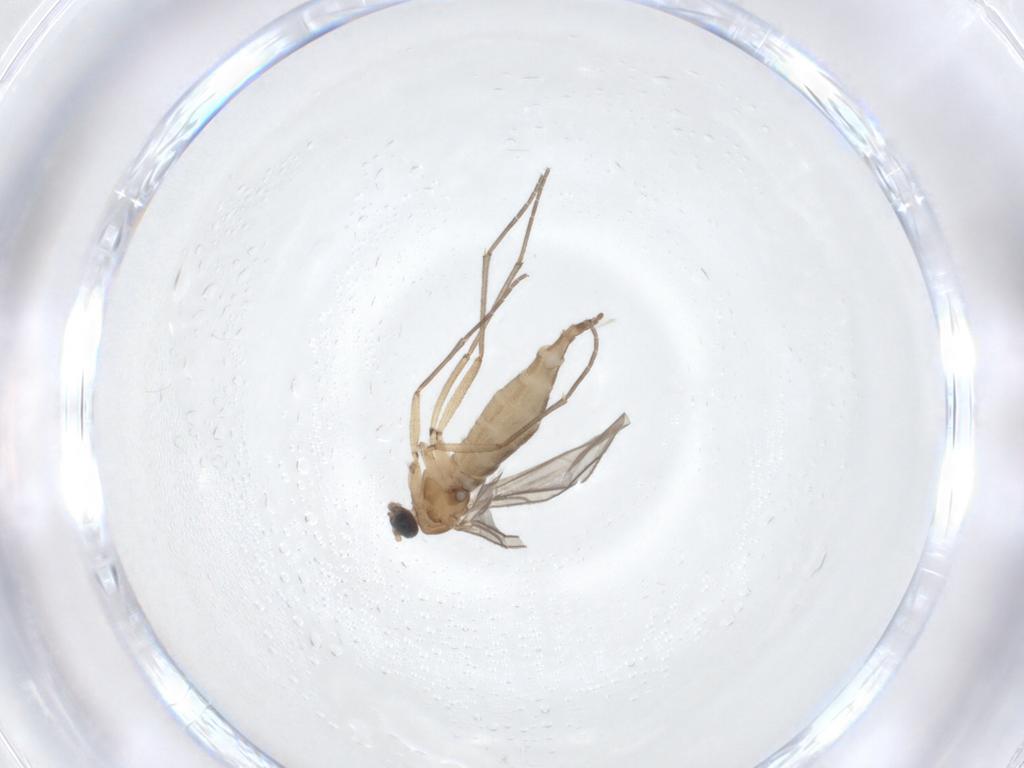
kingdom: Animalia
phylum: Arthropoda
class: Insecta
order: Diptera
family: Sciaridae
